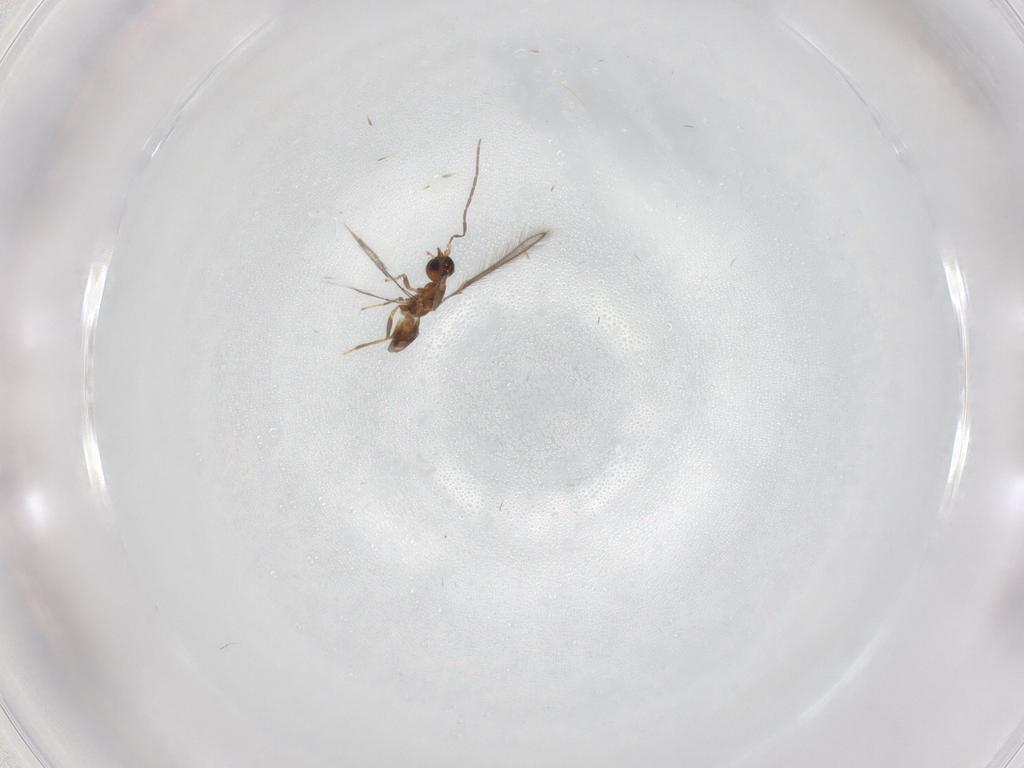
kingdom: Animalia
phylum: Arthropoda
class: Insecta
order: Hymenoptera
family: Mymaridae
